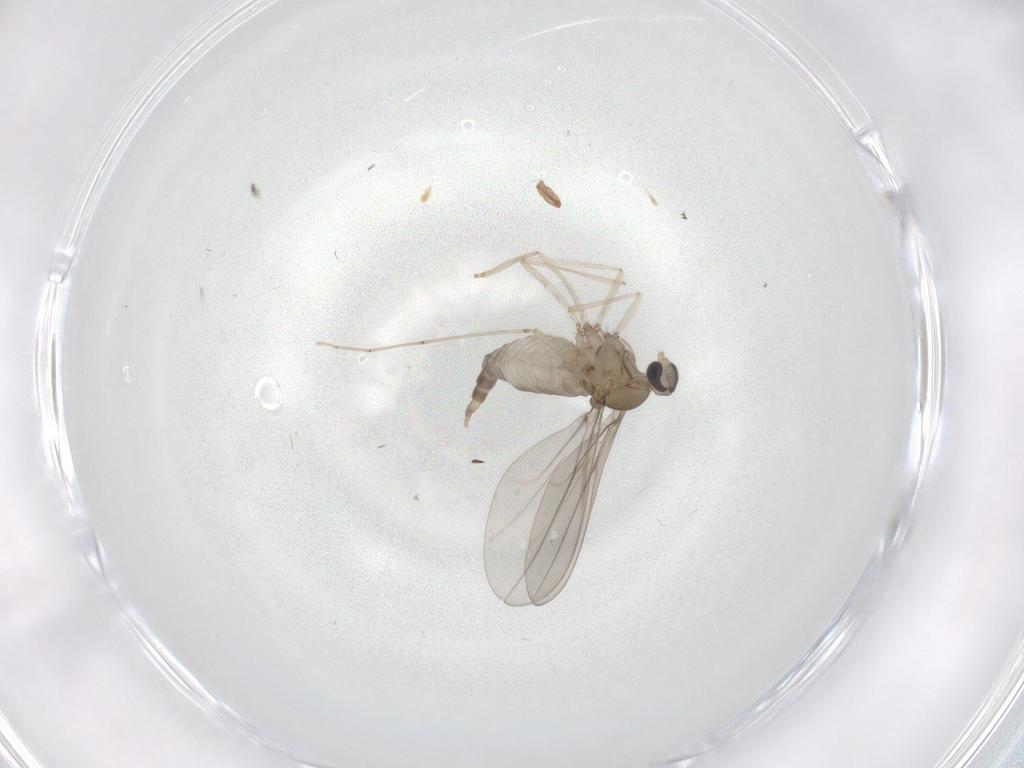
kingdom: Animalia
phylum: Arthropoda
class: Insecta
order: Diptera
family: Cecidomyiidae
